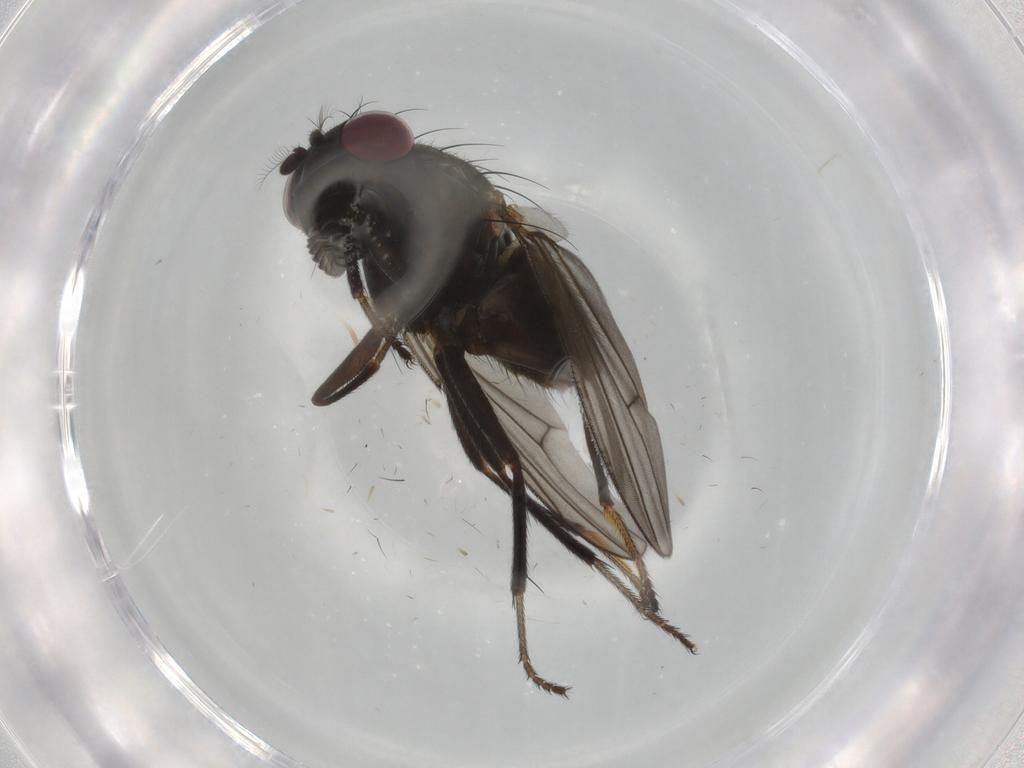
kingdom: Animalia
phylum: Arthropoda
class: Insecta
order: Diptera
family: Ephydridae
